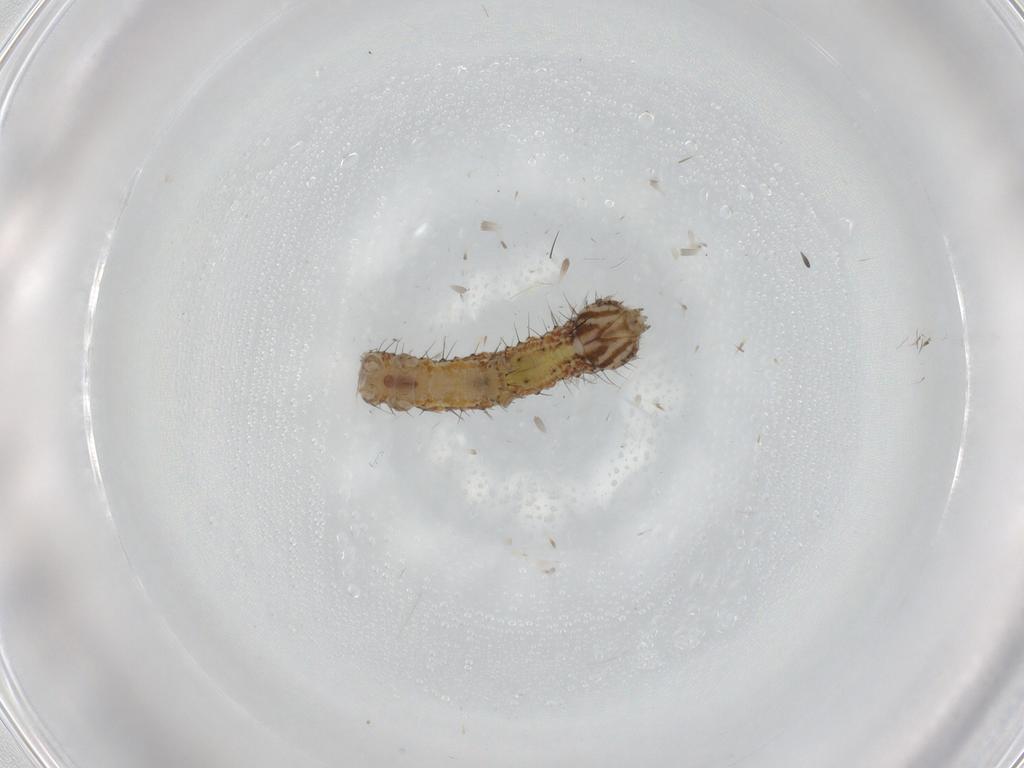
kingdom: Animalia
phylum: Arthropoda
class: Insecta
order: Lepidoptera
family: Erebidae
